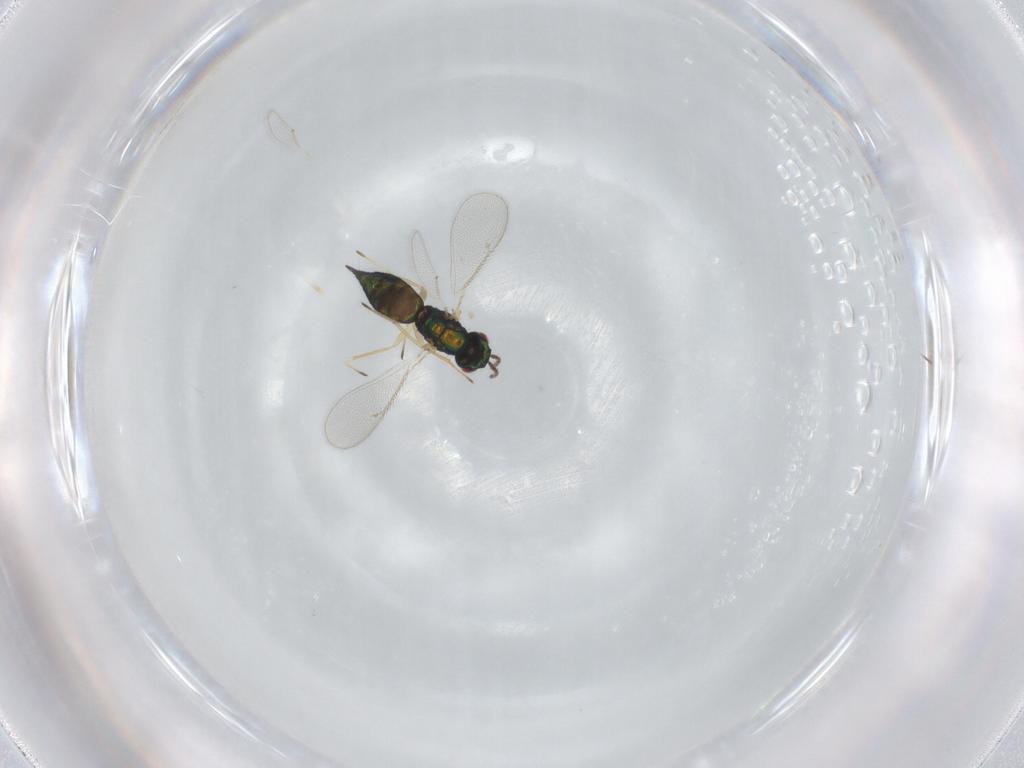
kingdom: Animalia
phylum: Arthropoda
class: Insecta
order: Hymenoptera
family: Eulophidae
